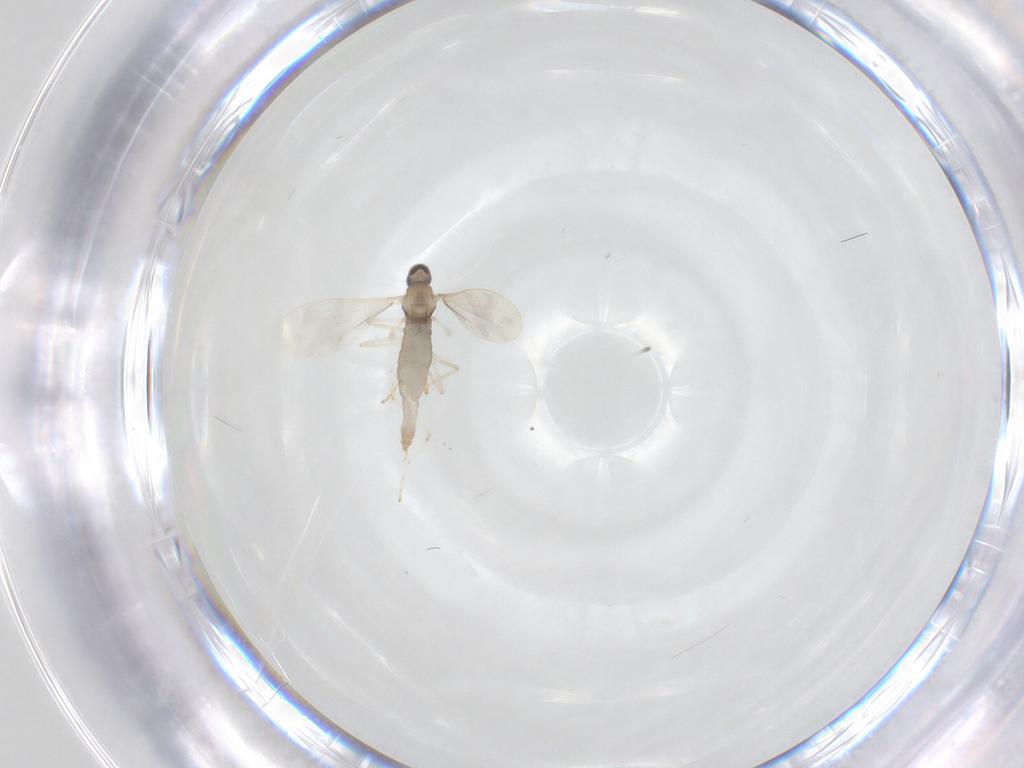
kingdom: Animalia
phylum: Arthropoda
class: Insecta
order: Diptera
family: Cecidomyiidae
